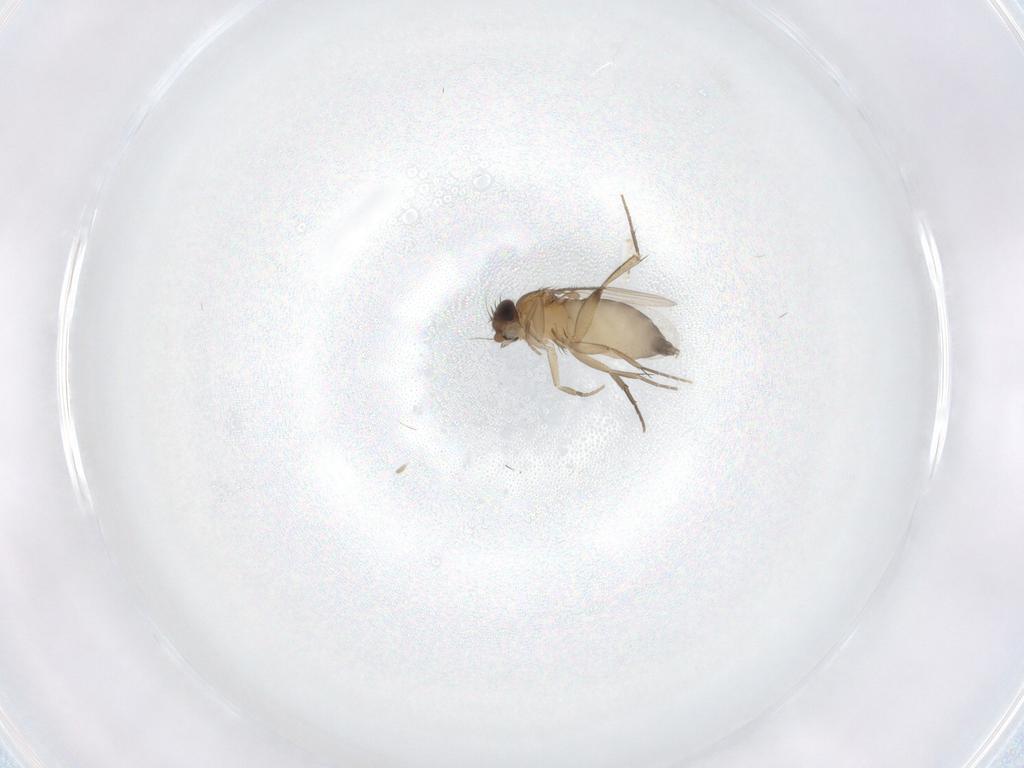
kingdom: Animalia
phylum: Arthropoda
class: Insecta
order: Diptera
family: Phoridae
